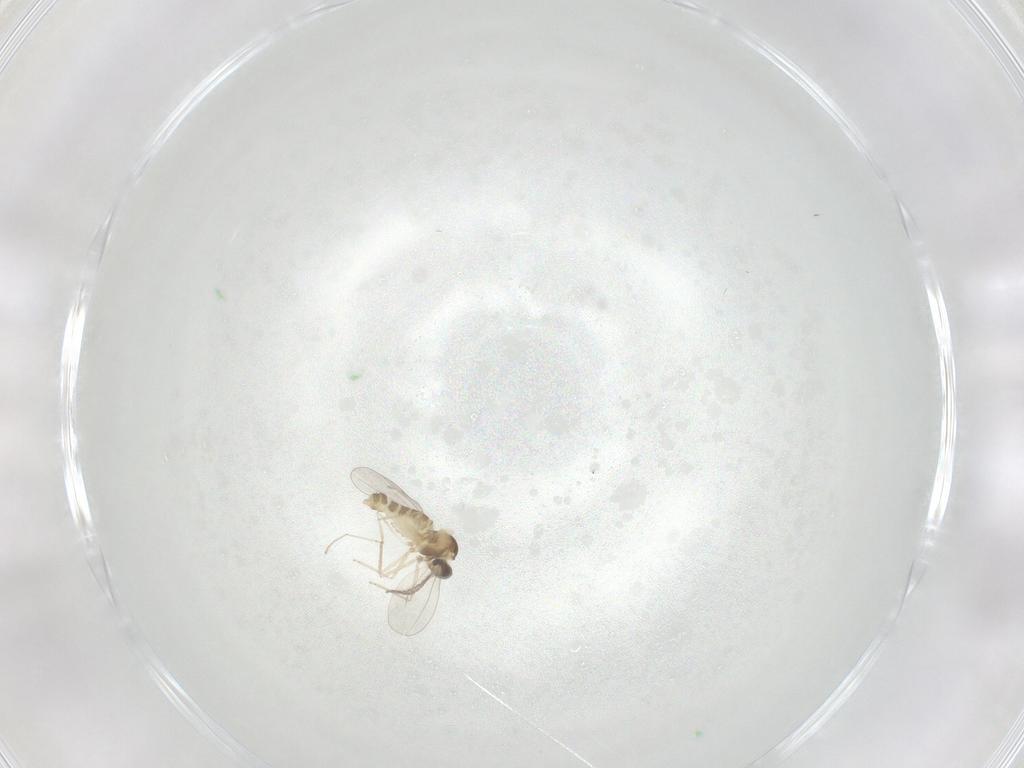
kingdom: Animalia
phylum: Arthropoda
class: Insecta
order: Diptera
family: Cecidomyiidae
